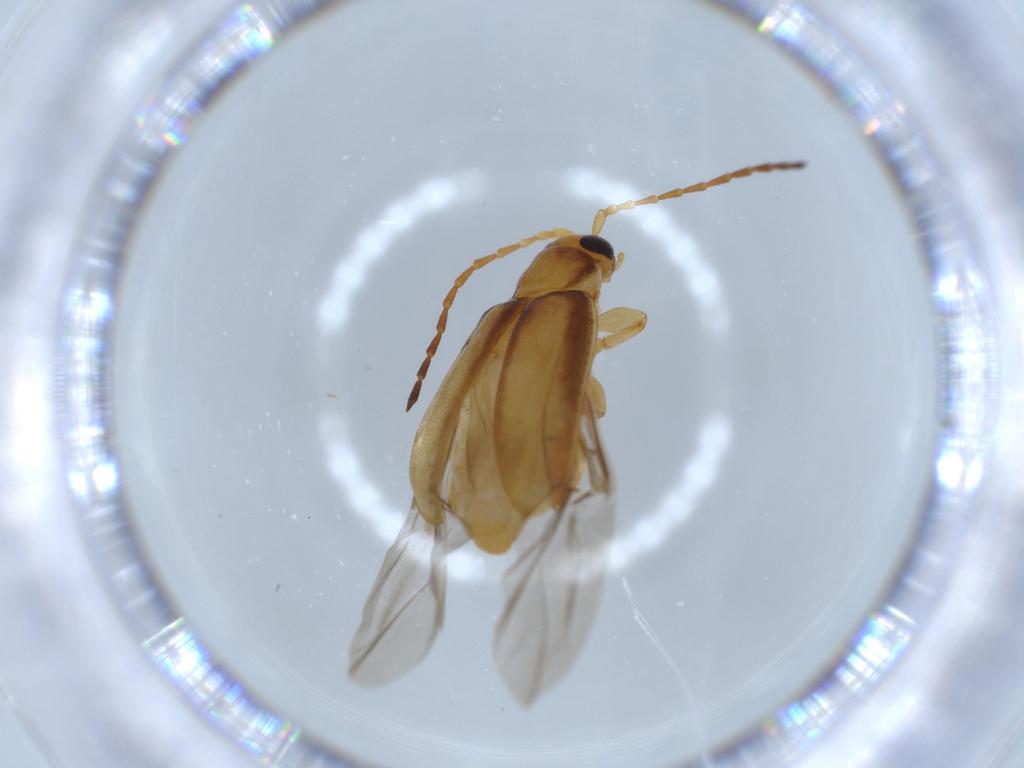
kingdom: Animalia
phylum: Arthropoda
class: Insecta
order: Coleoptera
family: Chrysomelidae
